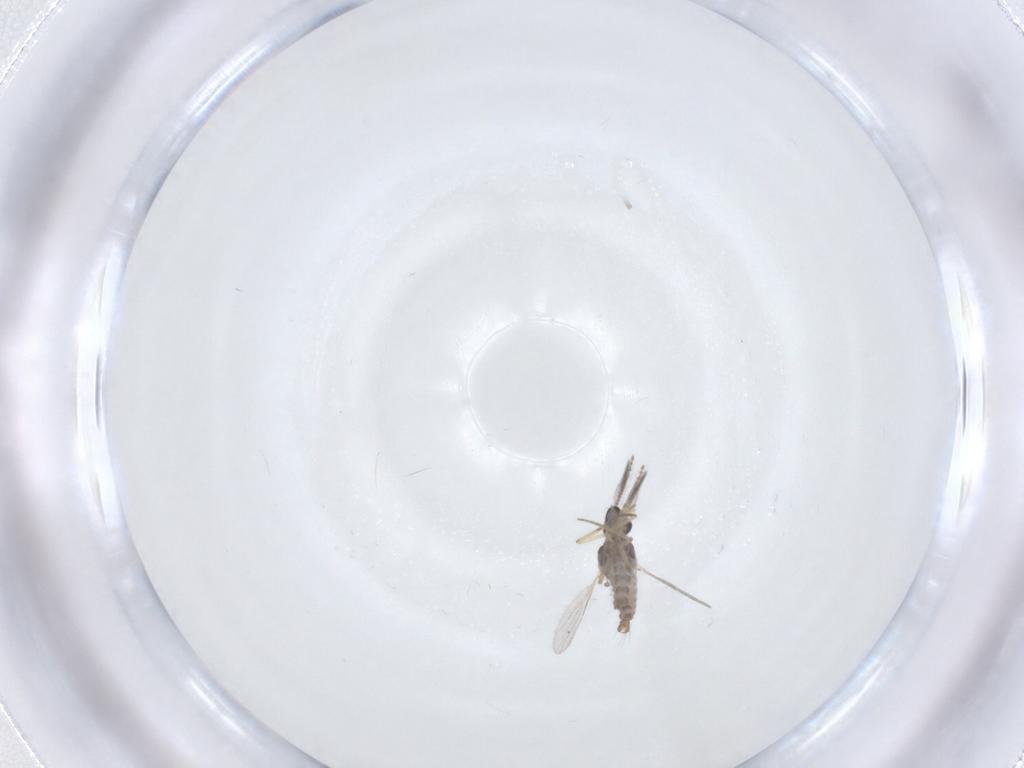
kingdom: Animalia
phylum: Arthropoda
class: Insecta
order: Diptera
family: Ceratopogonidae
